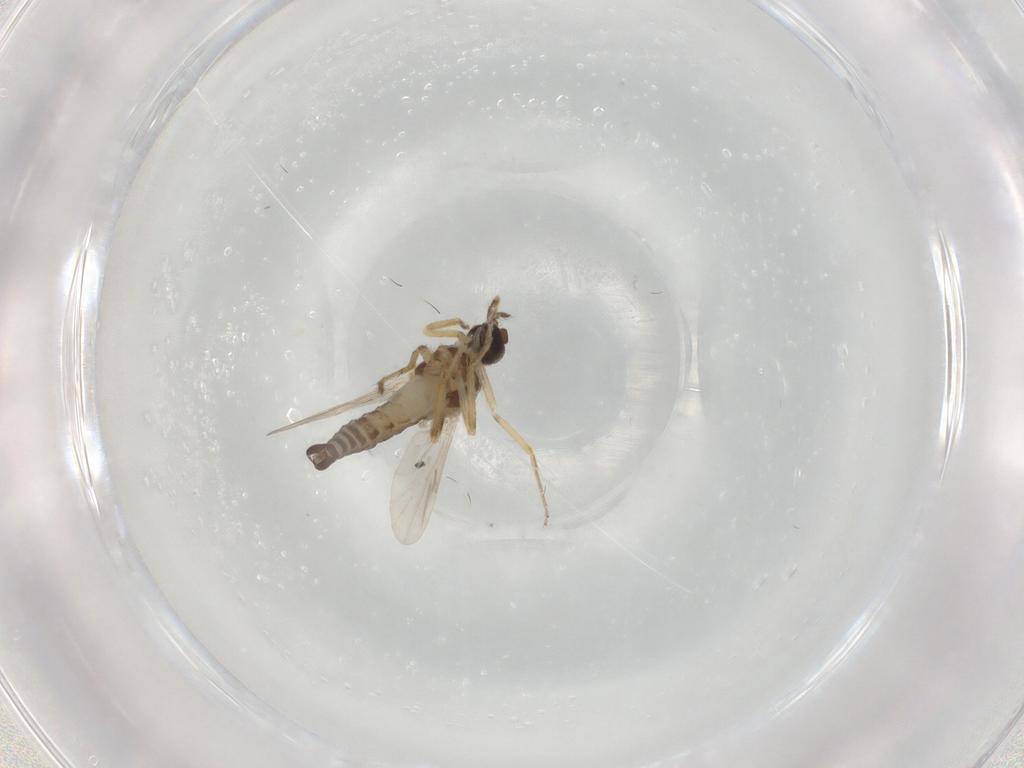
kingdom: Animalia
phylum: Arthropoda
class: Insecta
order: Diptera
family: Ceratopogonidae
